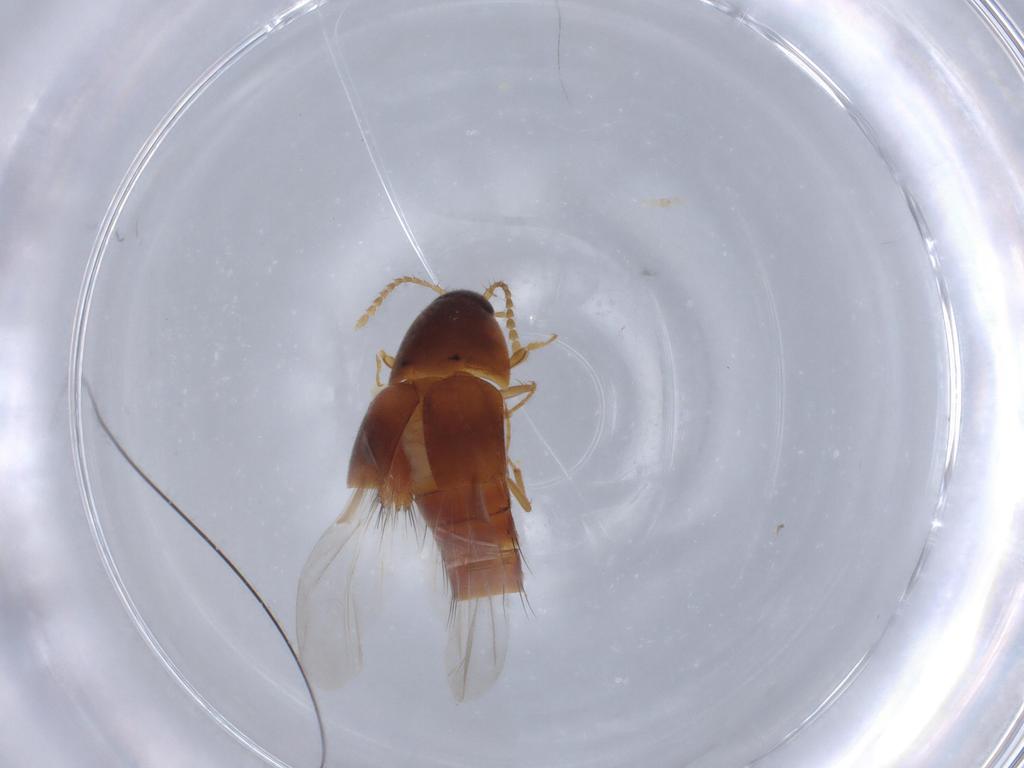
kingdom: Animalia
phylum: Arthropoda
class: Insecta
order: Coleoptera
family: Staphylinidae
